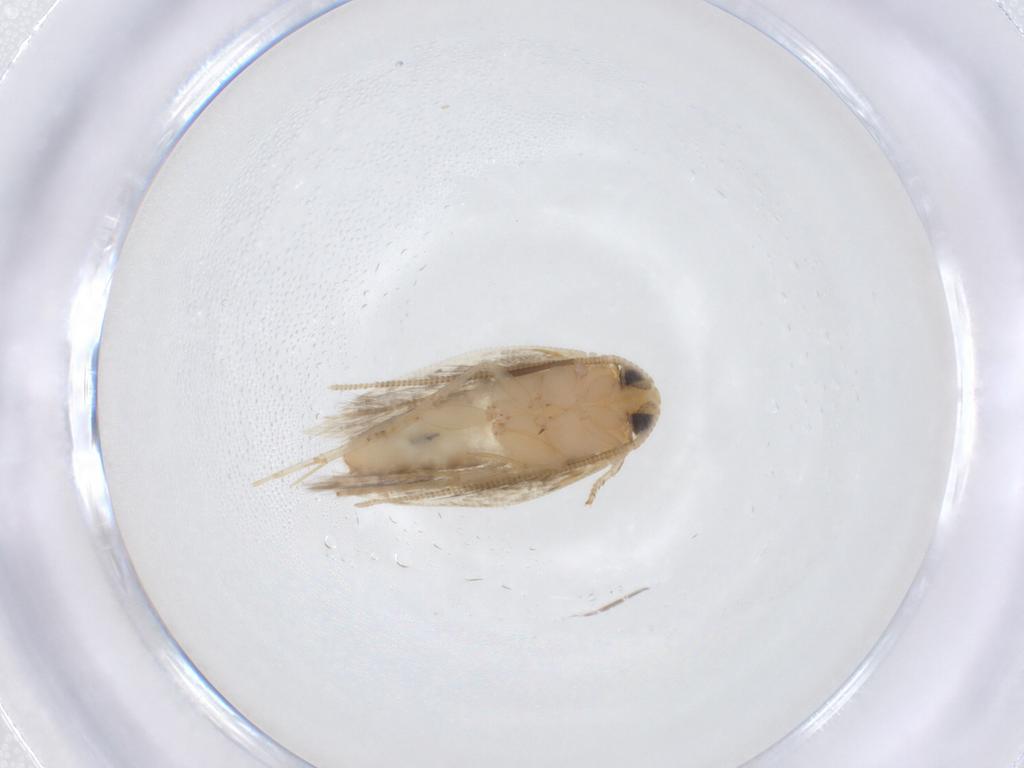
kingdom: Animalia
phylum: Arthropoda
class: Insecta
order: Lepidoptera
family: Opostegidae
